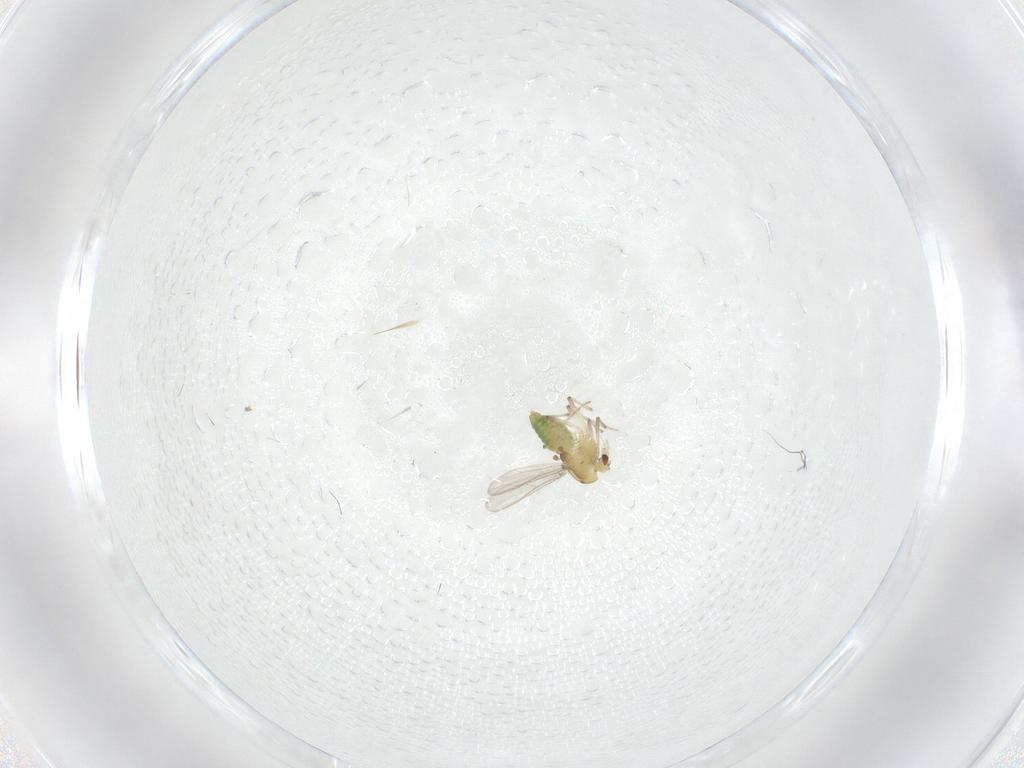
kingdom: Animalia
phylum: Arthropoda
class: Insecta
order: Diptera
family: Chironomidae
